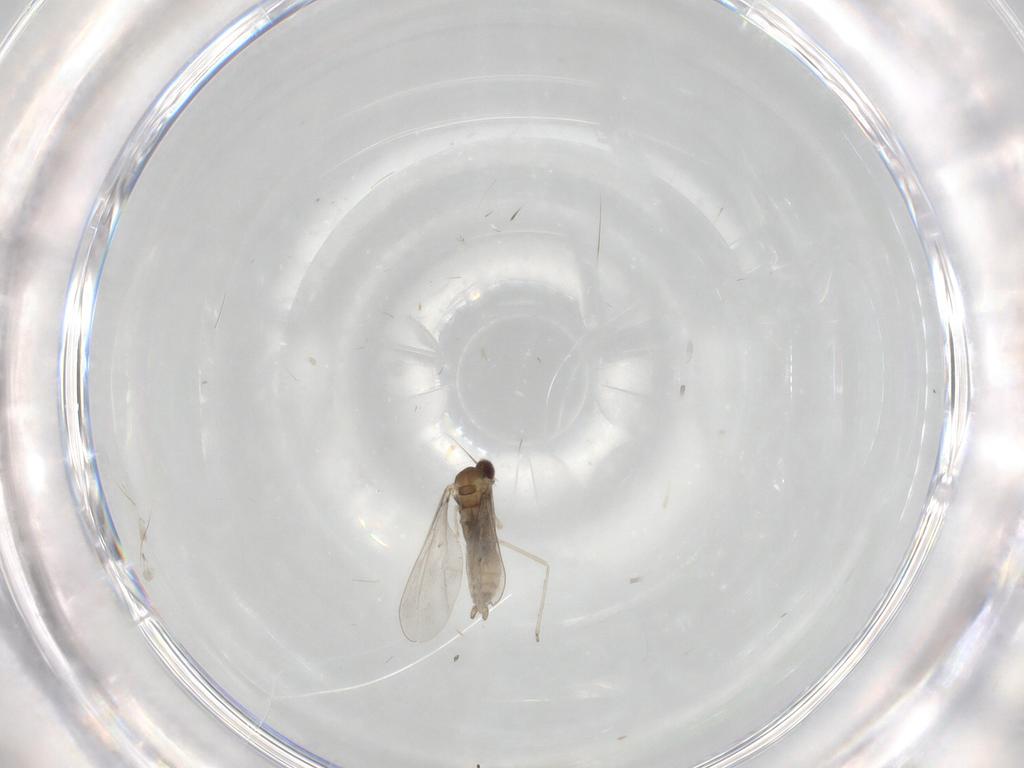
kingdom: Animalia
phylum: Arthropoda
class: Insecta
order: Diptera
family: Cecidomyiidae
